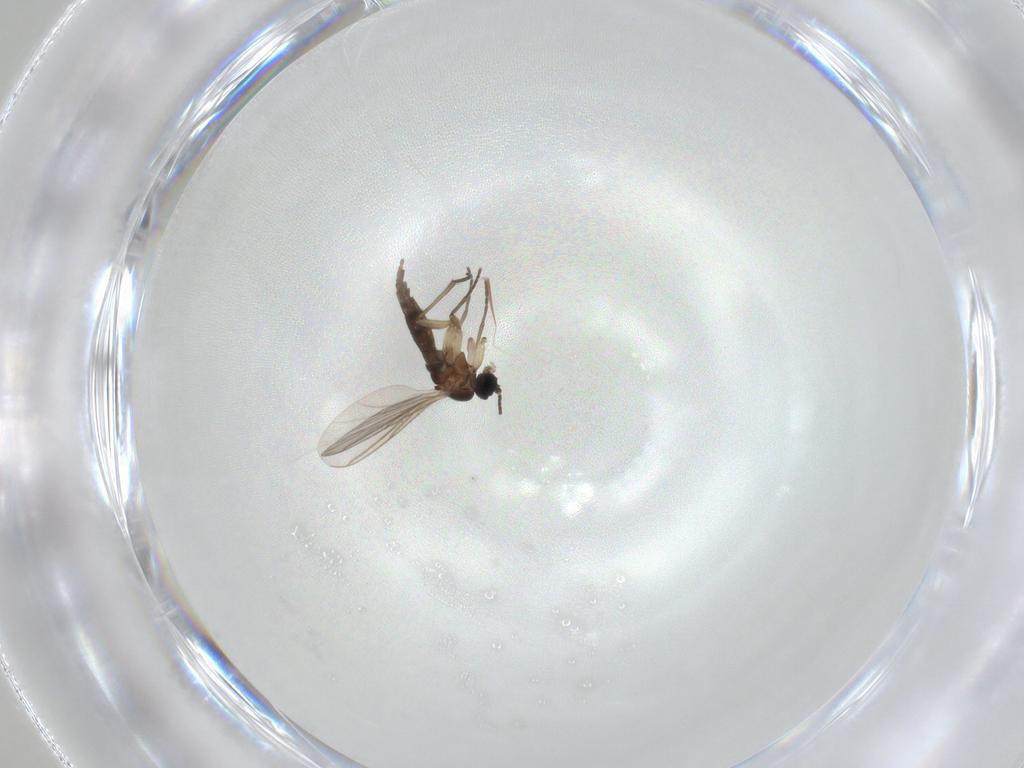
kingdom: Animalia
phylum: Arthropoda
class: Insecta
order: Diptera
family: Sciaridae
